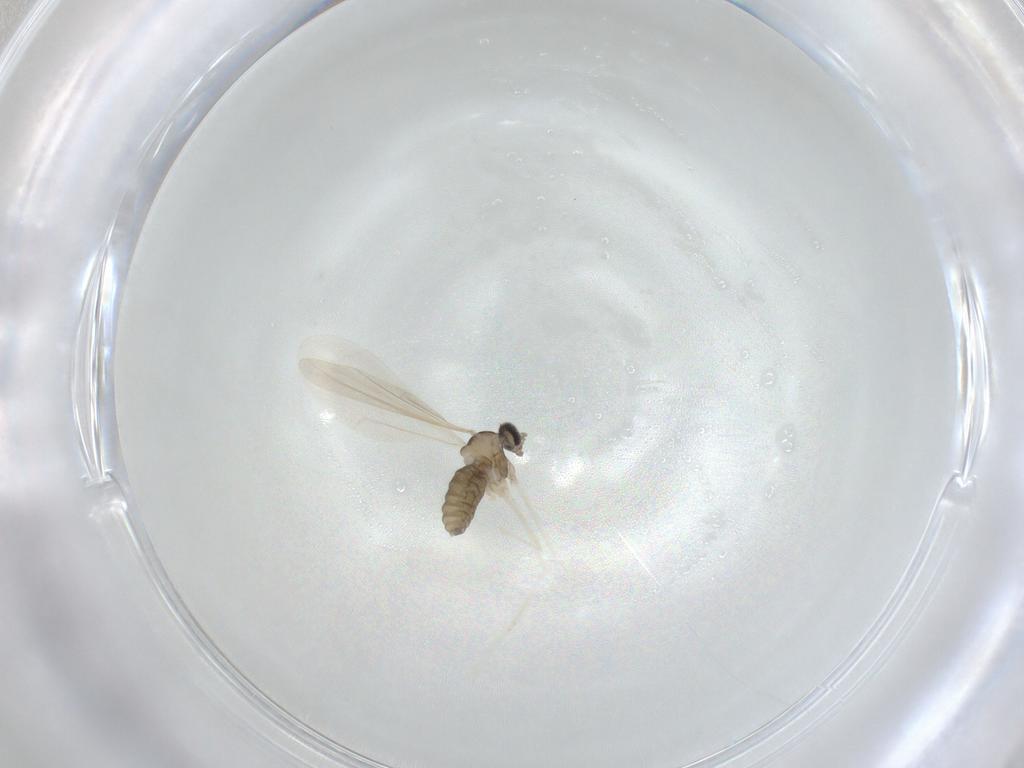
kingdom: Animalia
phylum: Arthropoda
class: Insecta
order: Diptera
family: Cecidomyiidae
